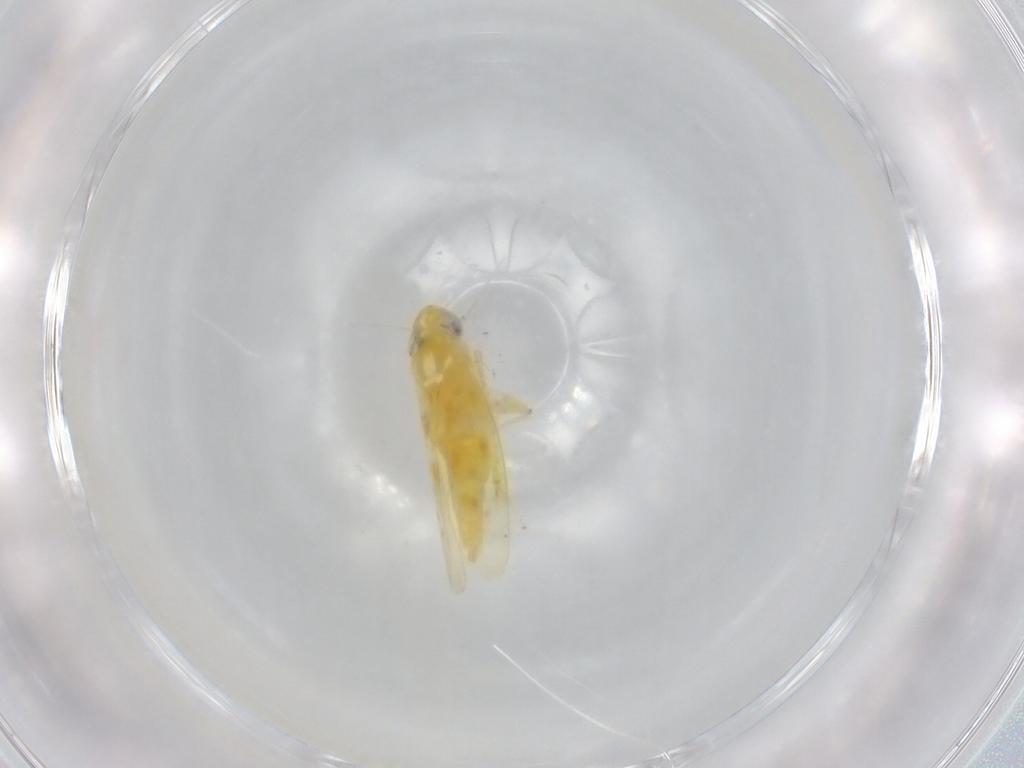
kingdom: Animalia
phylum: Arthropoda
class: Insecta
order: Hemiptera
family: Cicadellidae
